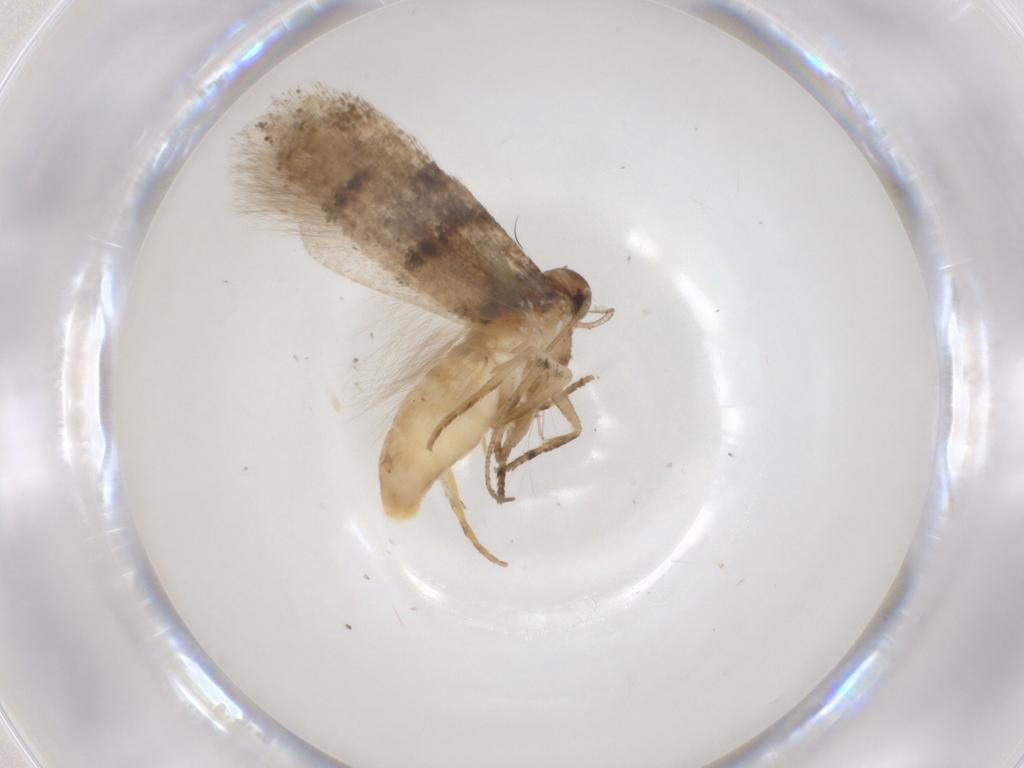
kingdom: Animalia
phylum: Arthropoda
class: Insecta
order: Lepidoptera
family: Gelechiidae
